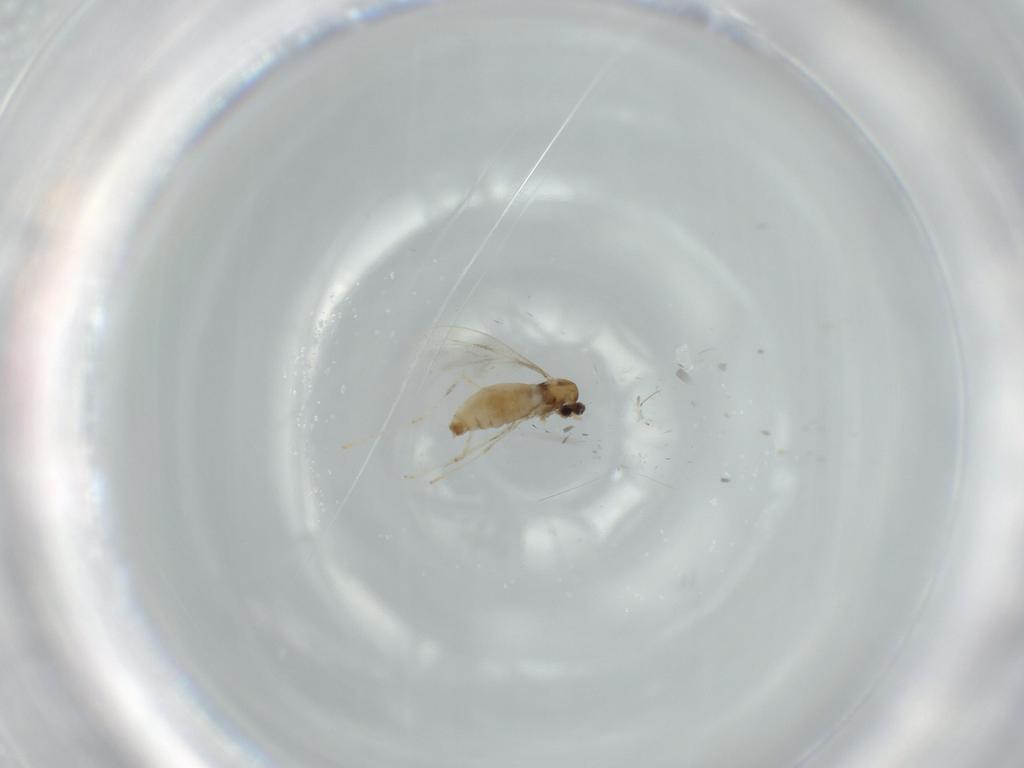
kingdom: Animalia
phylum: Arthropoda
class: Insecta
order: Diptera
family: Cecidomyiidae
